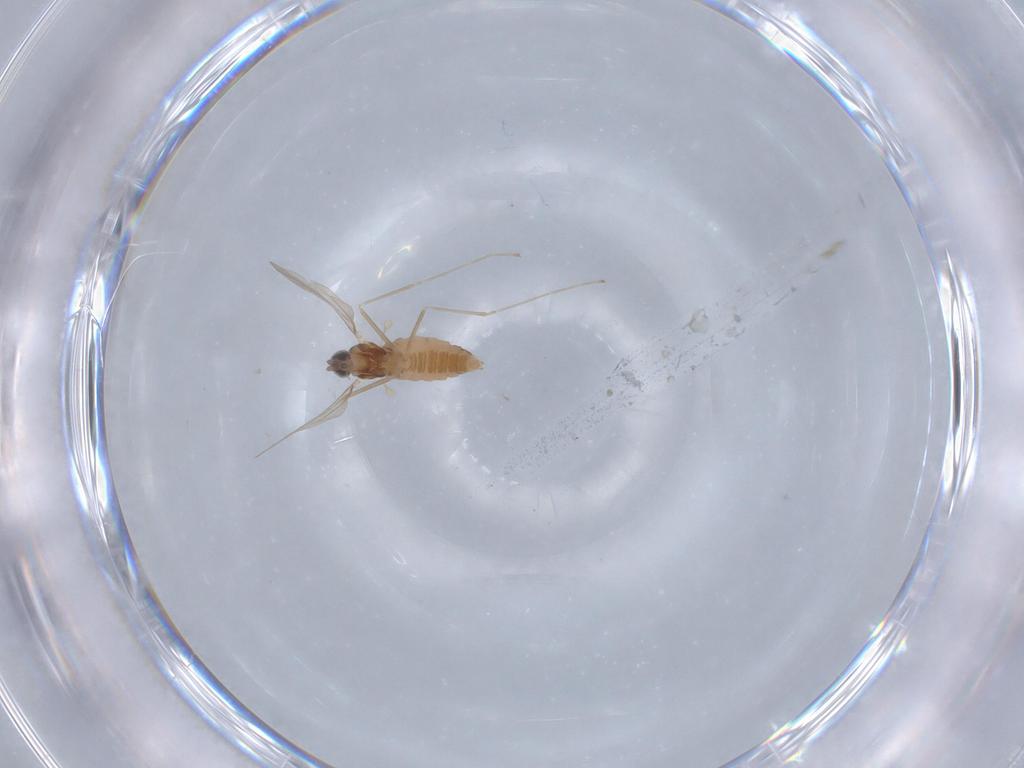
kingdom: Animalia
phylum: Arthropoda
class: Insecta
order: Diptera
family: Cecidomyiidae
